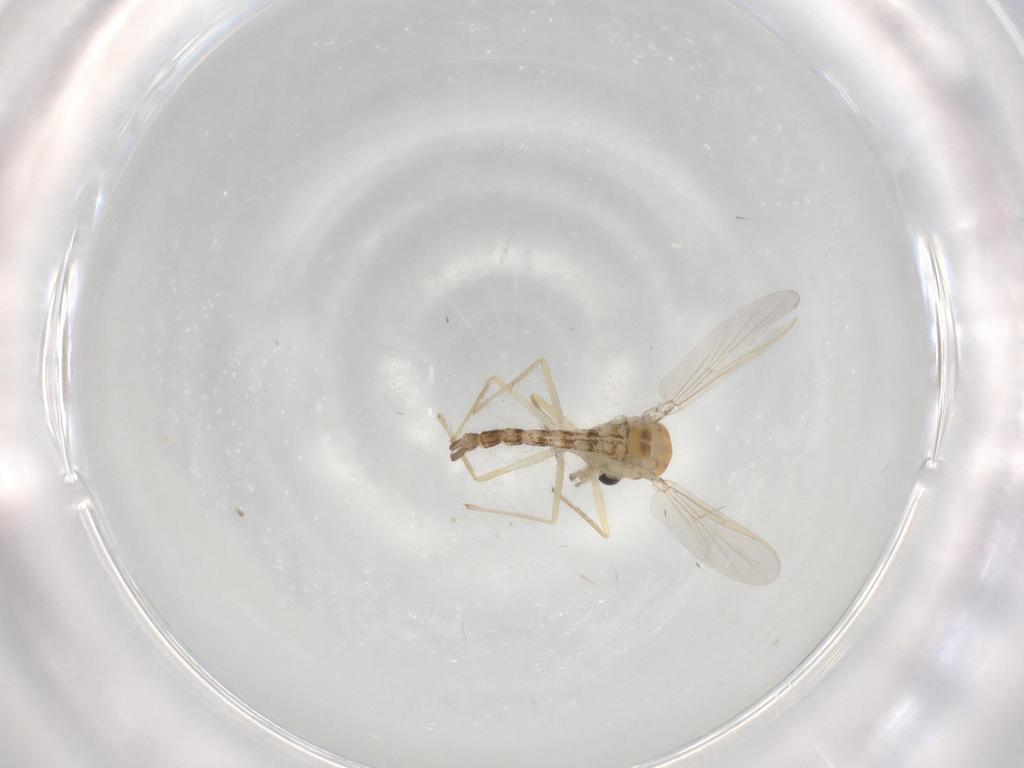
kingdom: Animalia
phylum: Arthropoda
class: Insecta
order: Diptera
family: Chironomidae
